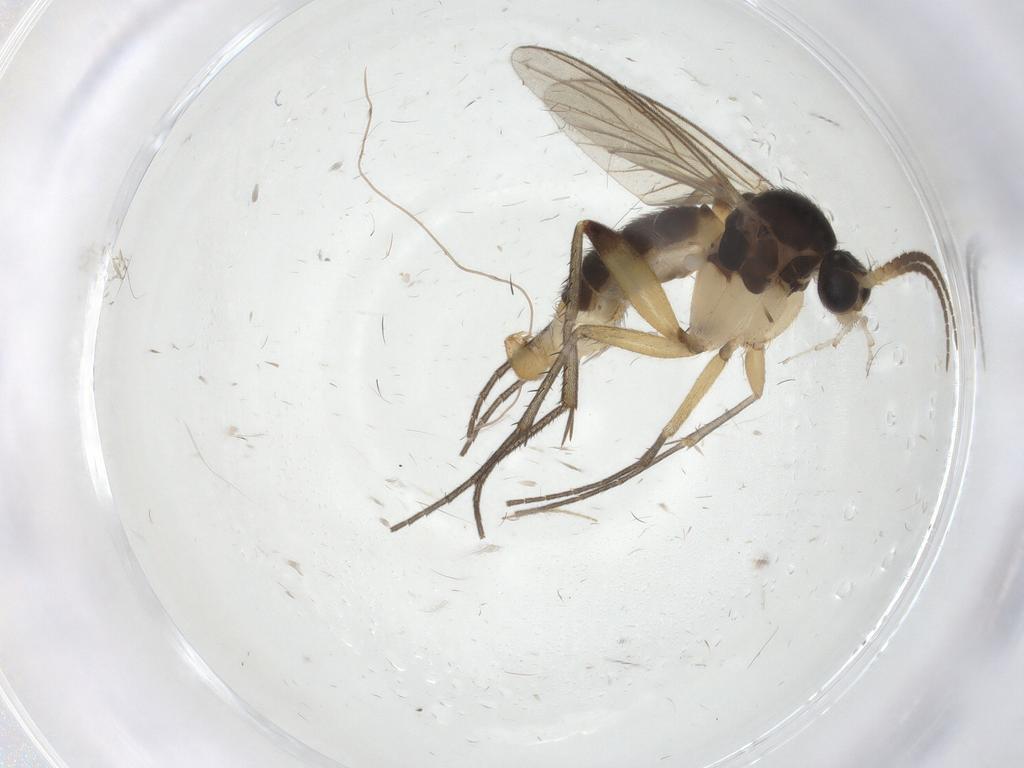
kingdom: Animalia
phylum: Arthropoda
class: Insecta
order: Diptera
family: Mycetophilidae
